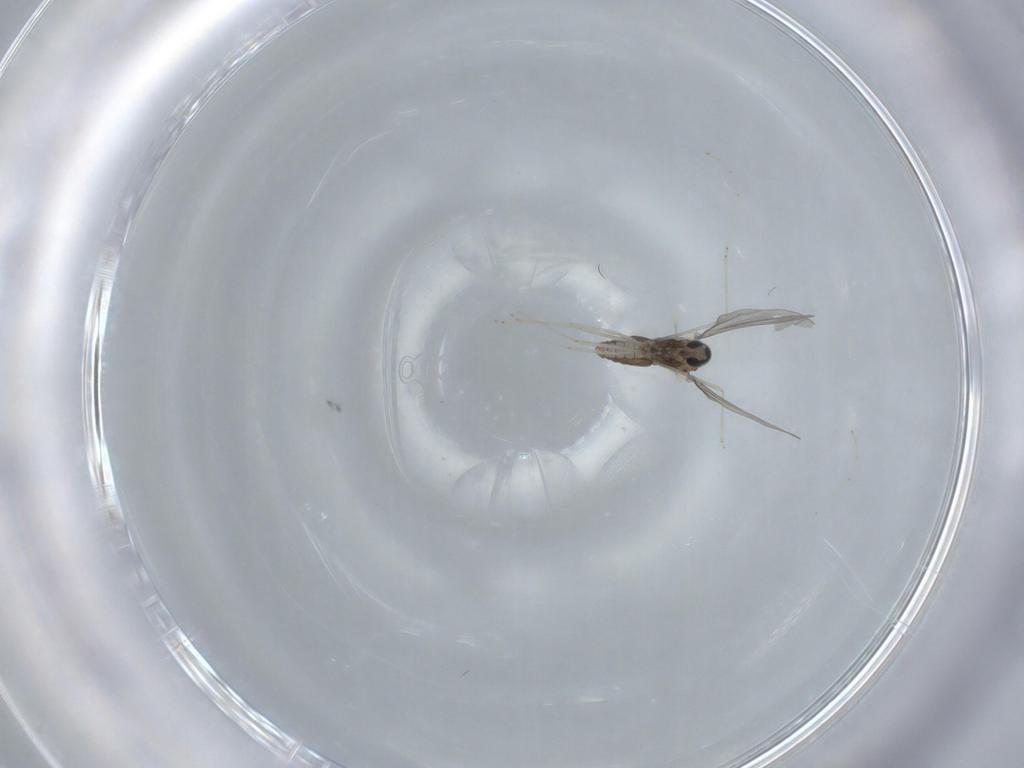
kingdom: Animalia
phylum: Arthropoda
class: Insecta
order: Diptera
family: Cecidomyiidae
